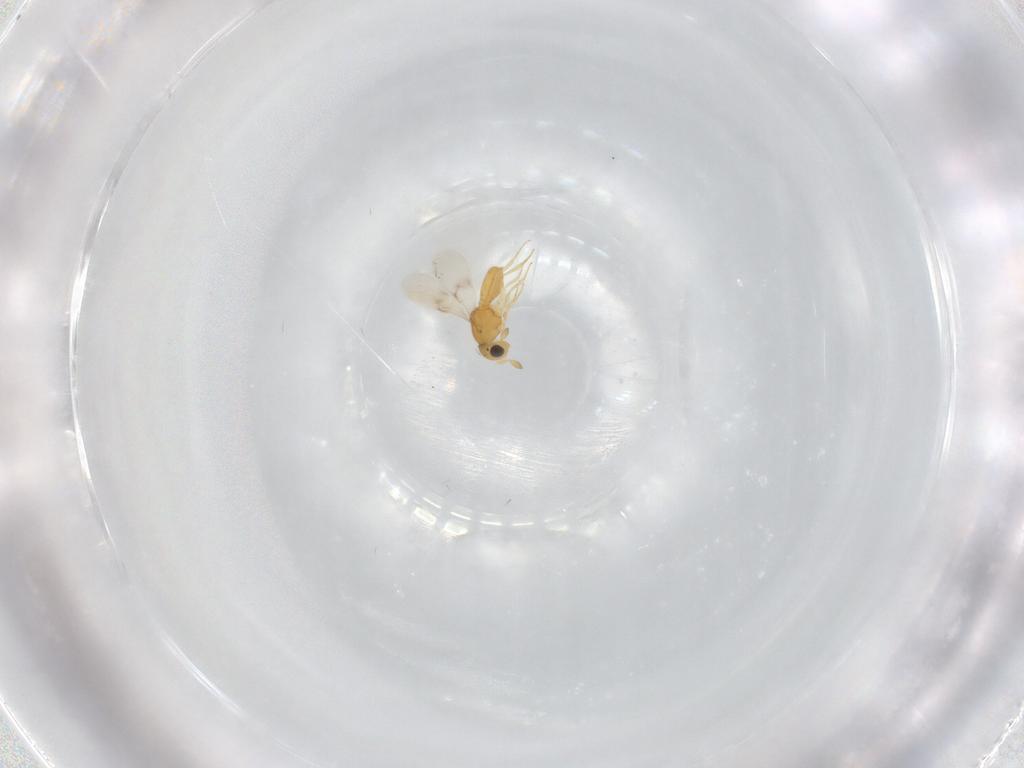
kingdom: Animalia
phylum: Arthropoda
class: Insecta
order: Hymenoptera
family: Scelionidae
